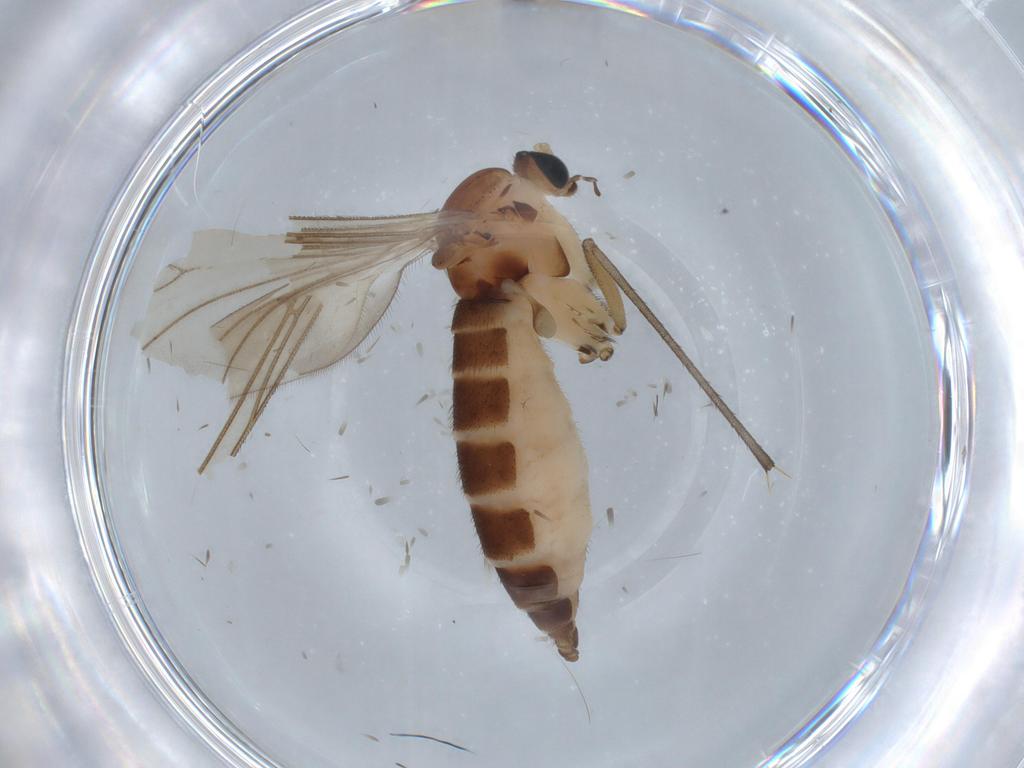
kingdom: Animalia
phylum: Arthropoda
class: Insecta
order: Diptera
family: Sciaridae
